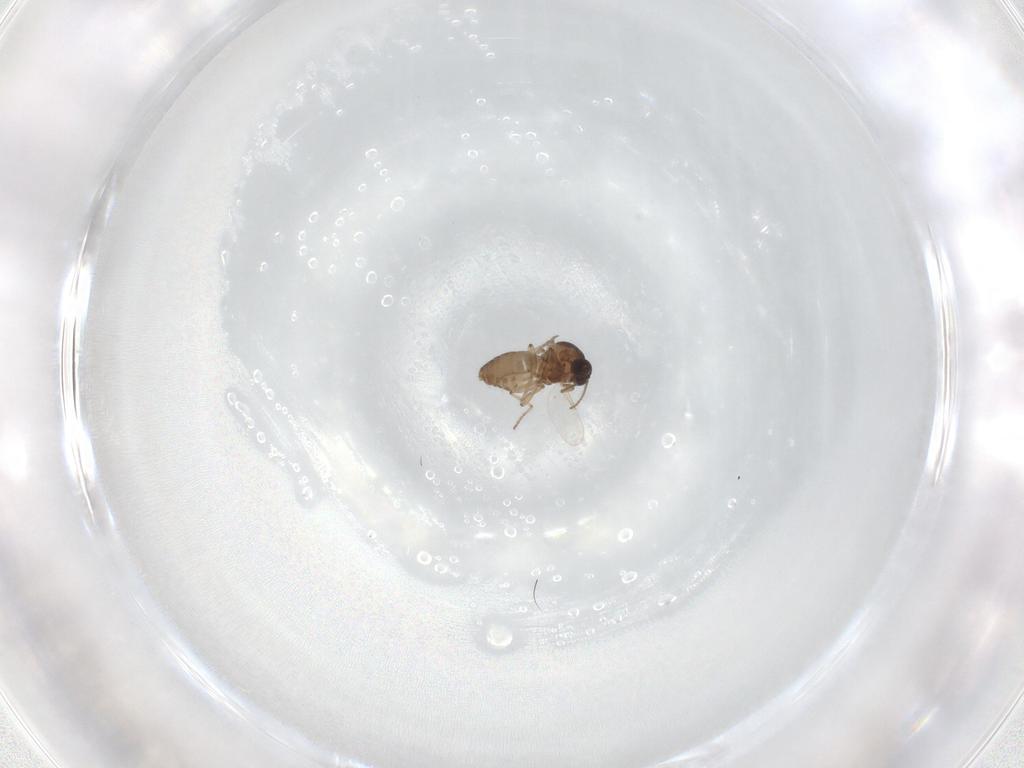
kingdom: Animalia
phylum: Arthropoda
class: Insecta
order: Diptera
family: Ceratopogonidae
